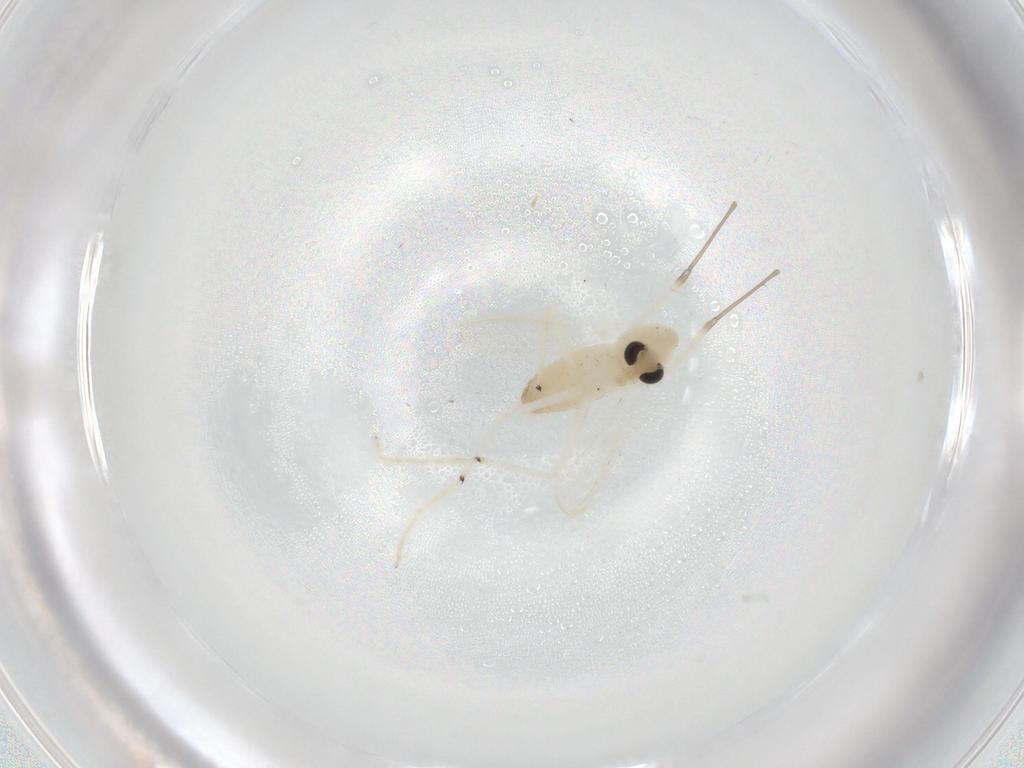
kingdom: Animalia
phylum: Arthropoda
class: Insecta
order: Diptera
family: Chironomidae
